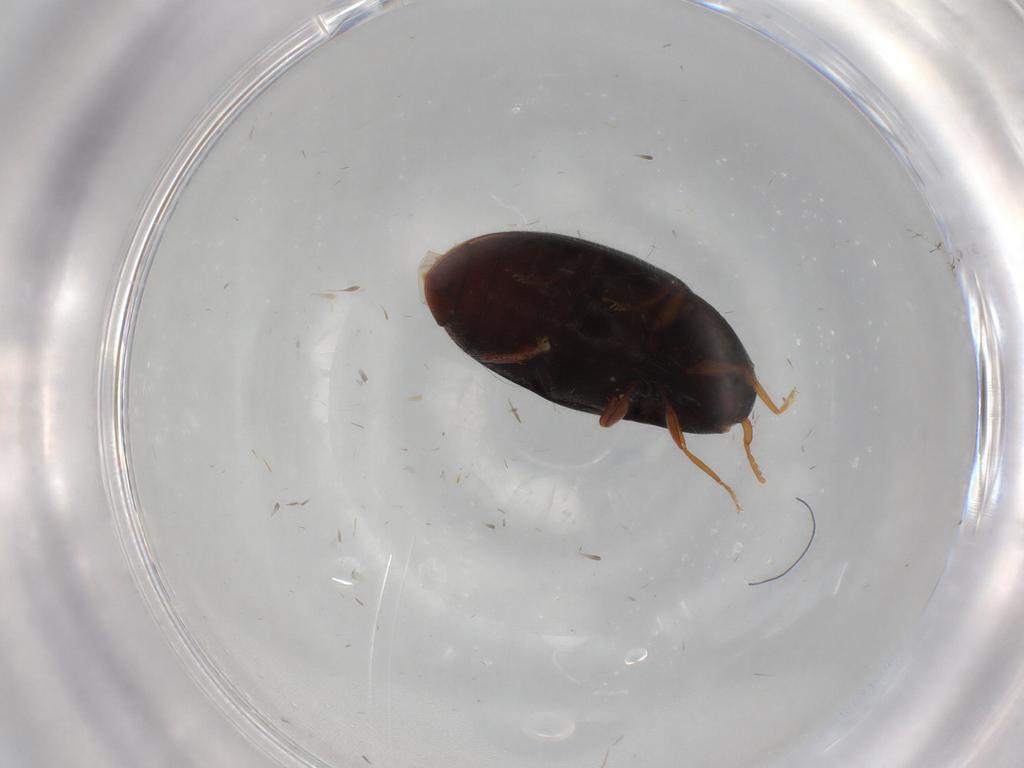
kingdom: Animalia
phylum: Arthropoda
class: Insecta
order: Coleoptera
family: Elateridae
